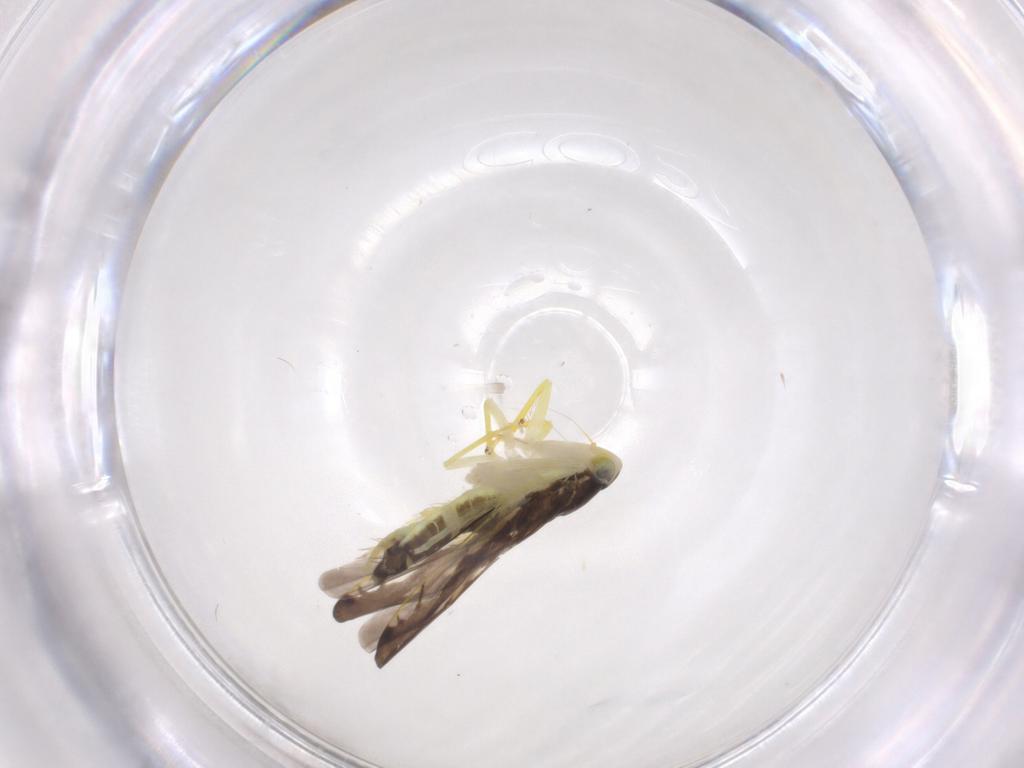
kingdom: Animalia
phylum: Arthropoda
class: Insecta
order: Hemiptera
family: Cicadellidae
